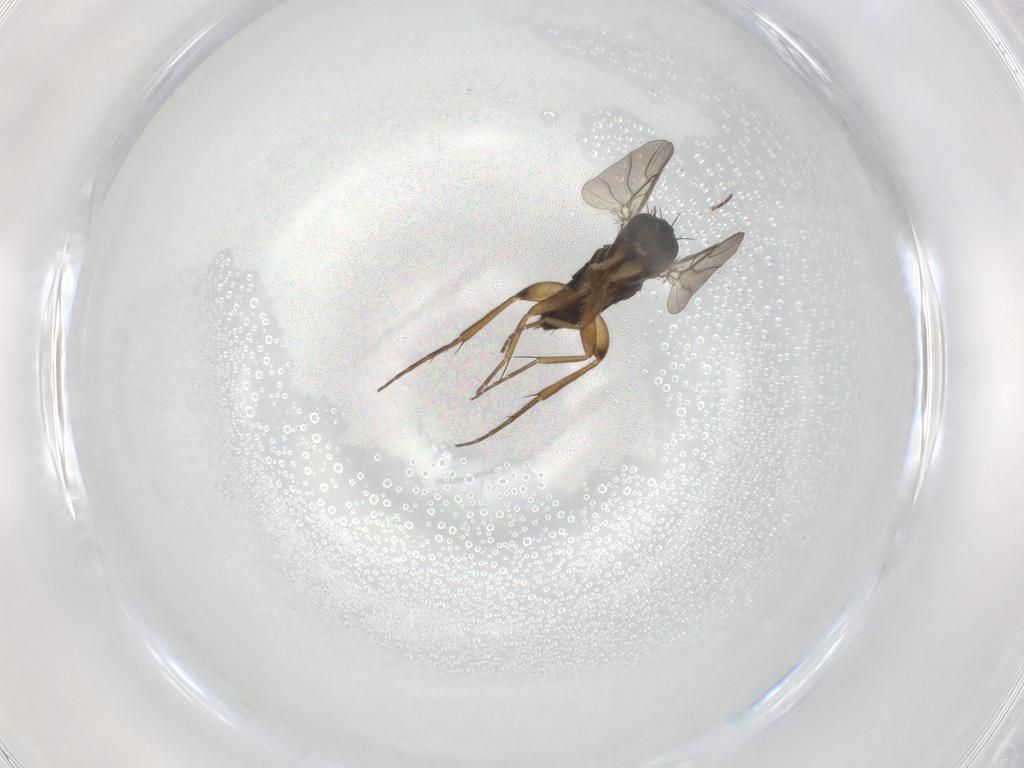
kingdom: Animalia
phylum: Arthropoda
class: Insecta
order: Diptera
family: Phoridae
